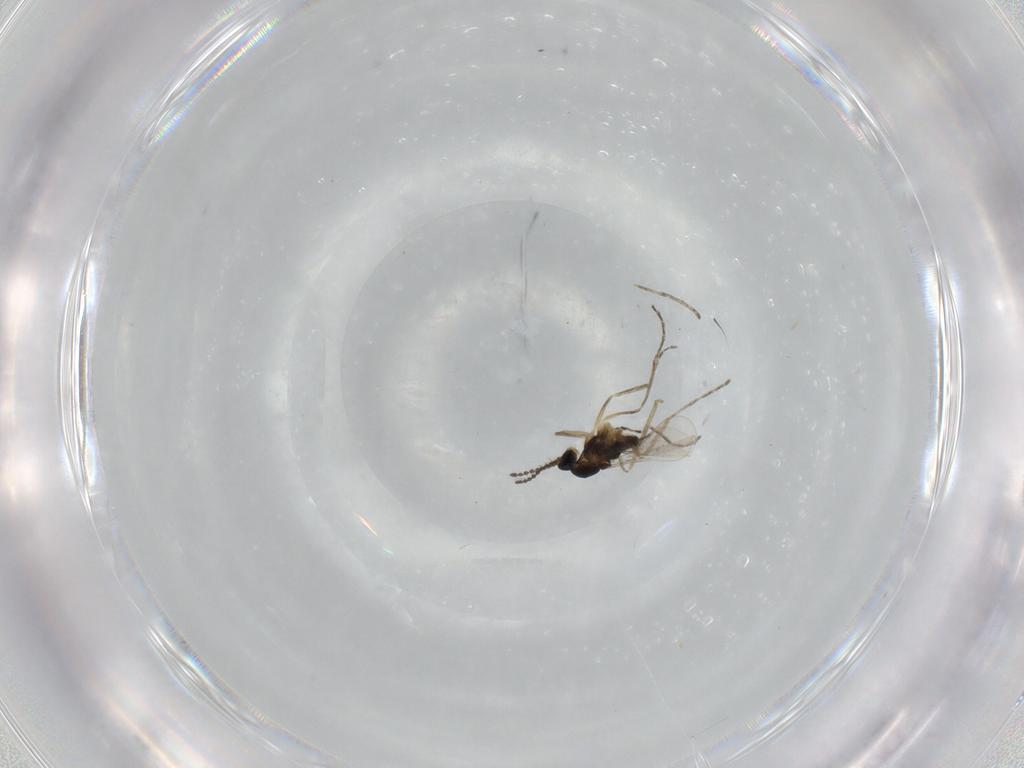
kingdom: Animalia
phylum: Arthropoda
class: Insecta
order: Diptera
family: Cecidomyiidae
